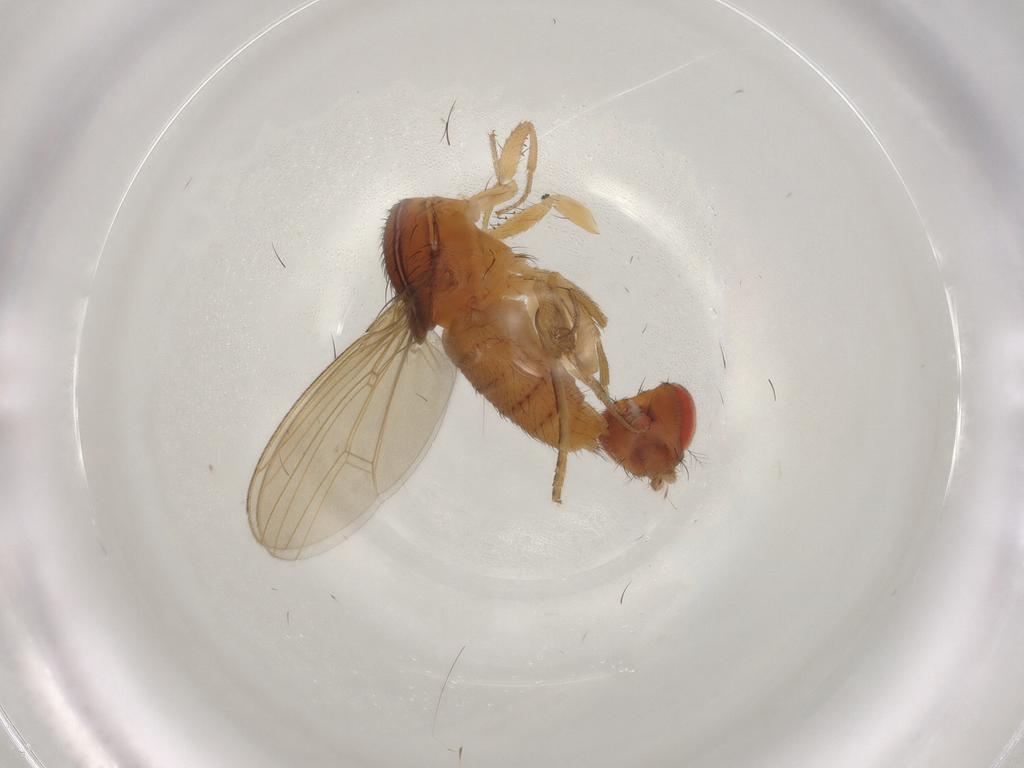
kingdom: Animalia
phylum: Arthropoda
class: Insecta
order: Diptera
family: Drosophilidae
